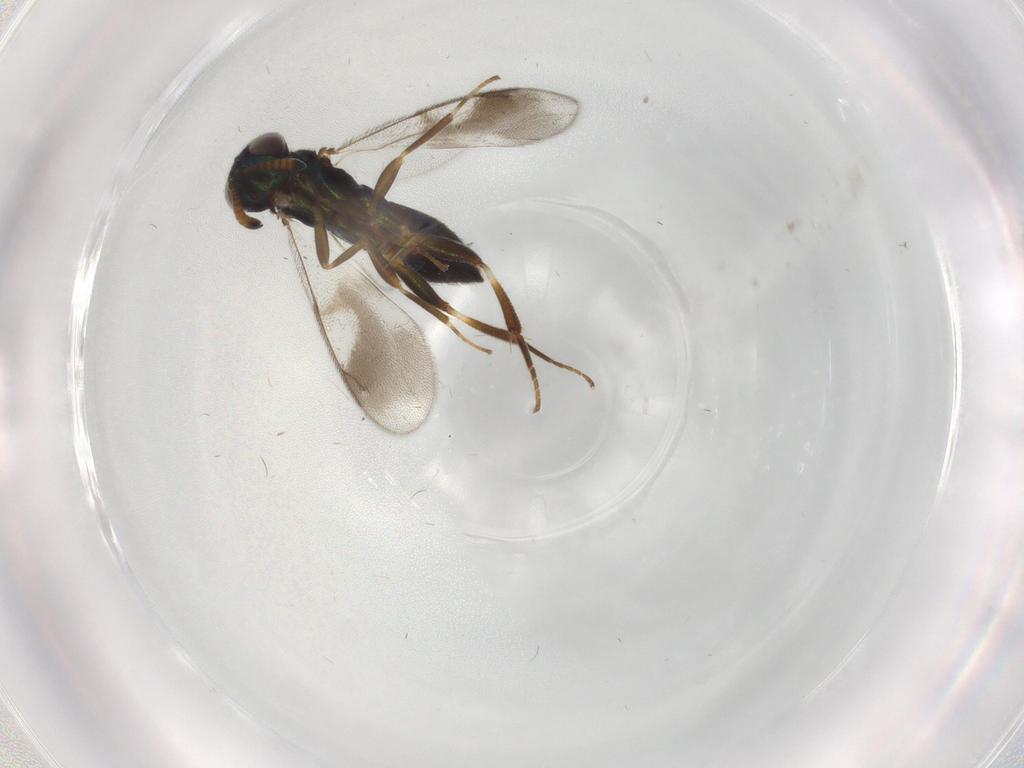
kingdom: Animalia
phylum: Arthropoda
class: Insecta
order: Hymenoptera
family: Cleonyminae
